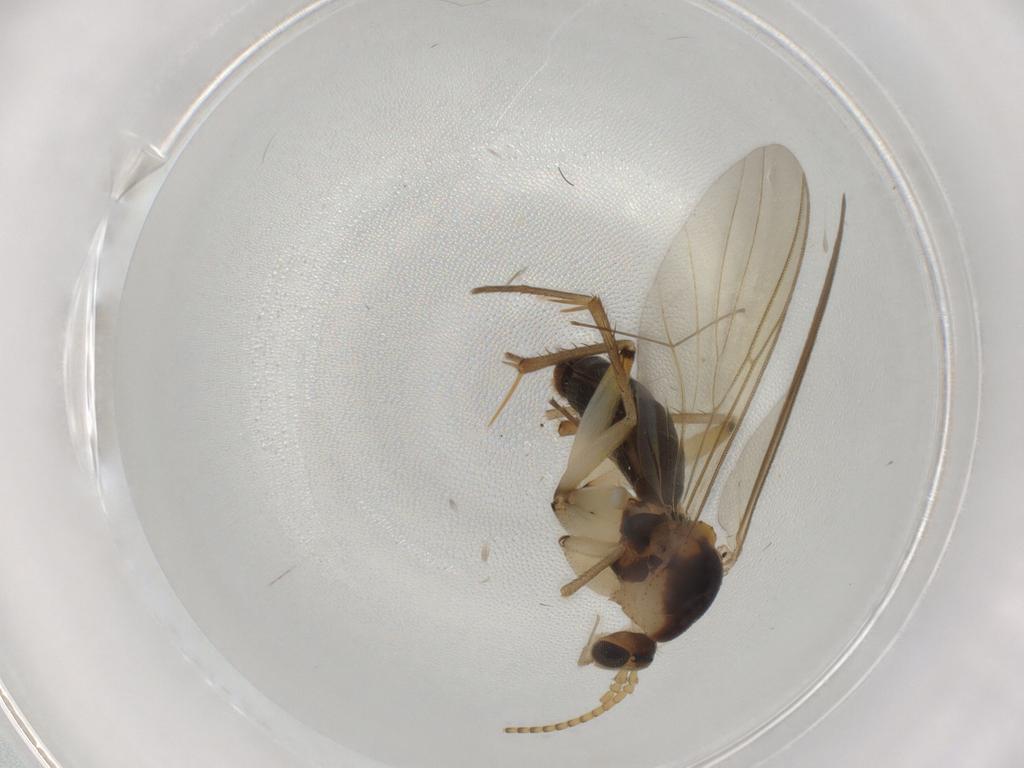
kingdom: Animalia
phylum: Arthropoda
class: Insecta
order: Diptera
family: Mycetophilidae
